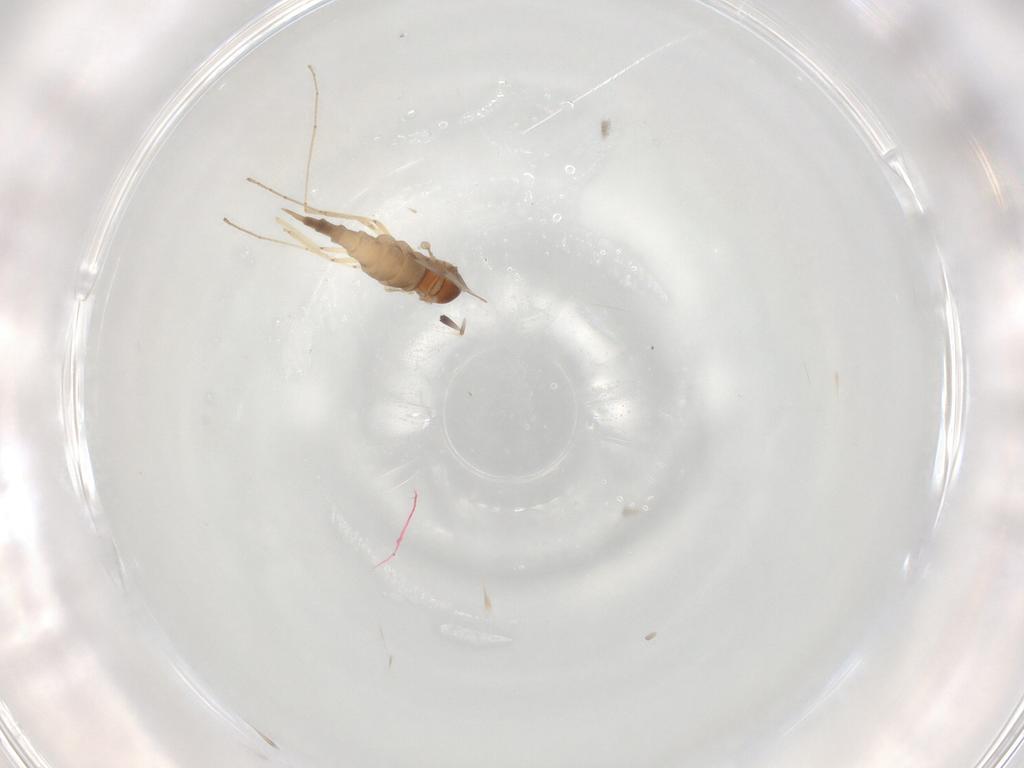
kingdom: Animalia
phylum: Arthropoda
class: Insecta
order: Diptera
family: Cecidomyiidae
